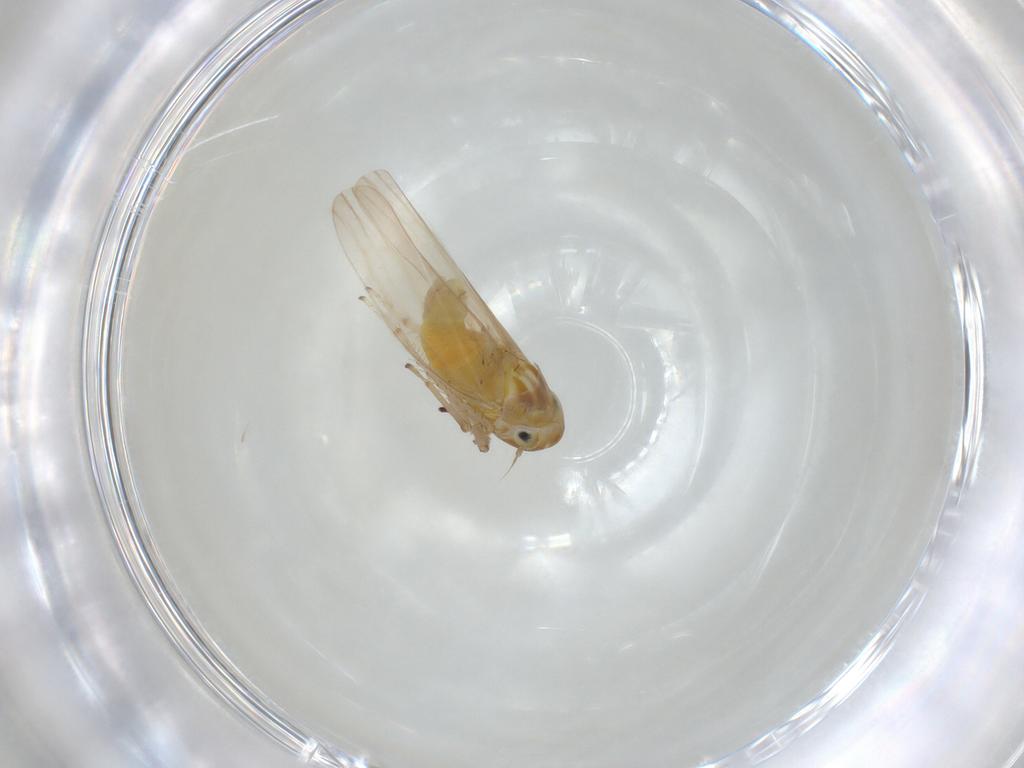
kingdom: Animalia
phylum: Arthropoda
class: Insecta
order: Hemiptera
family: Cicadellidae
